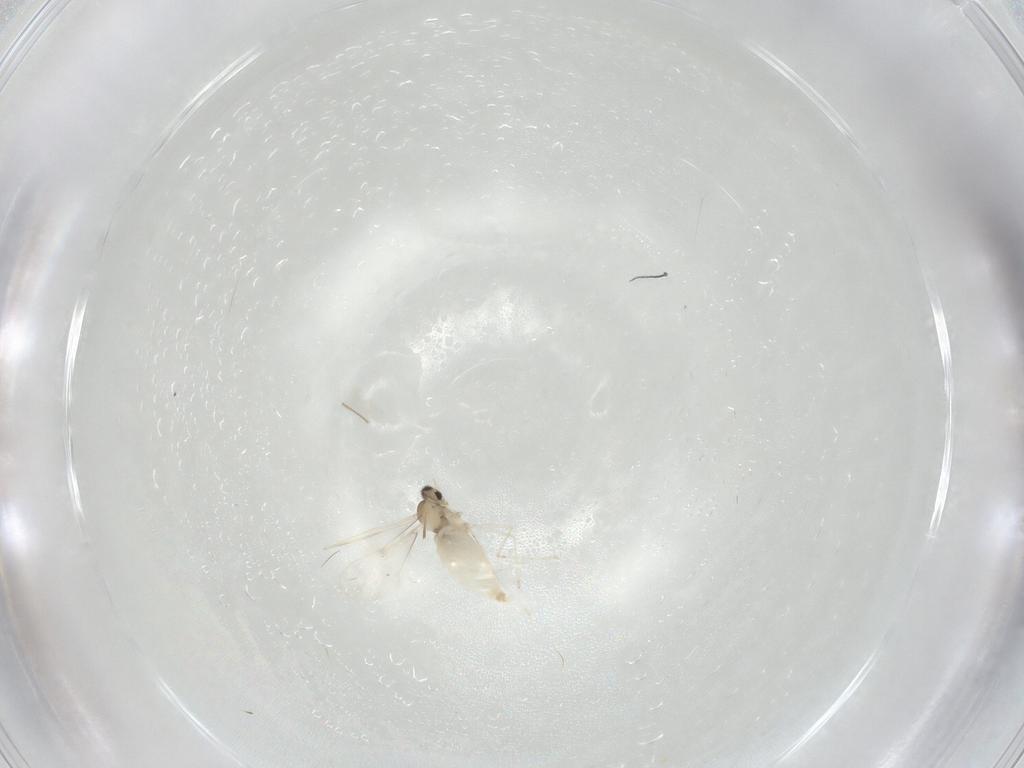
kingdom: Animalia
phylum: Arthropoda
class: Insecta
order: Diptera
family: Cecidomyiidae
